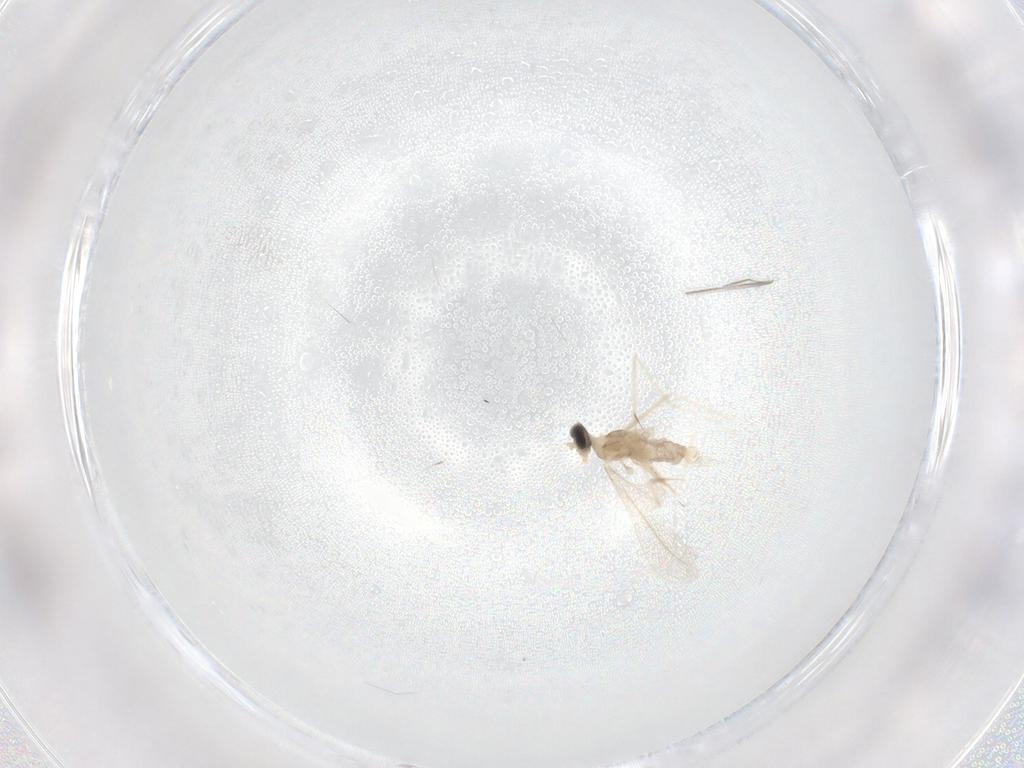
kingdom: Animalia
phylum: Arthropoda
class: Insecta
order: Diptera
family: Cecidomyiidae
